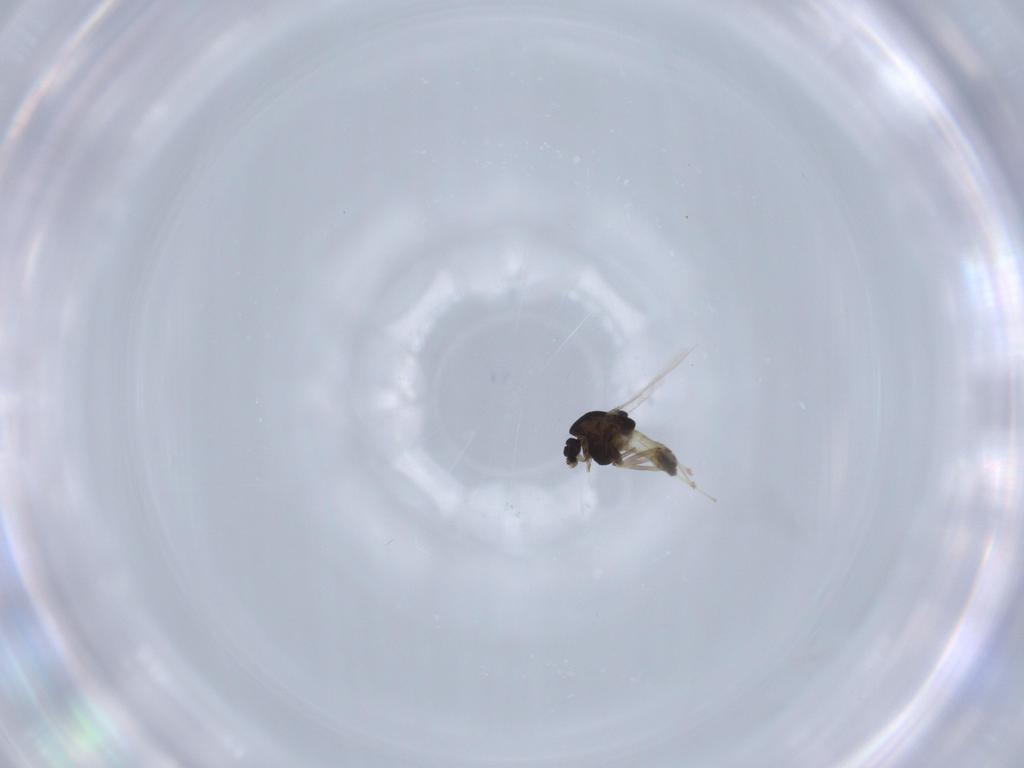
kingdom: Animalia
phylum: Arthropoda
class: Insecta
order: Diptera
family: Chironomidae
